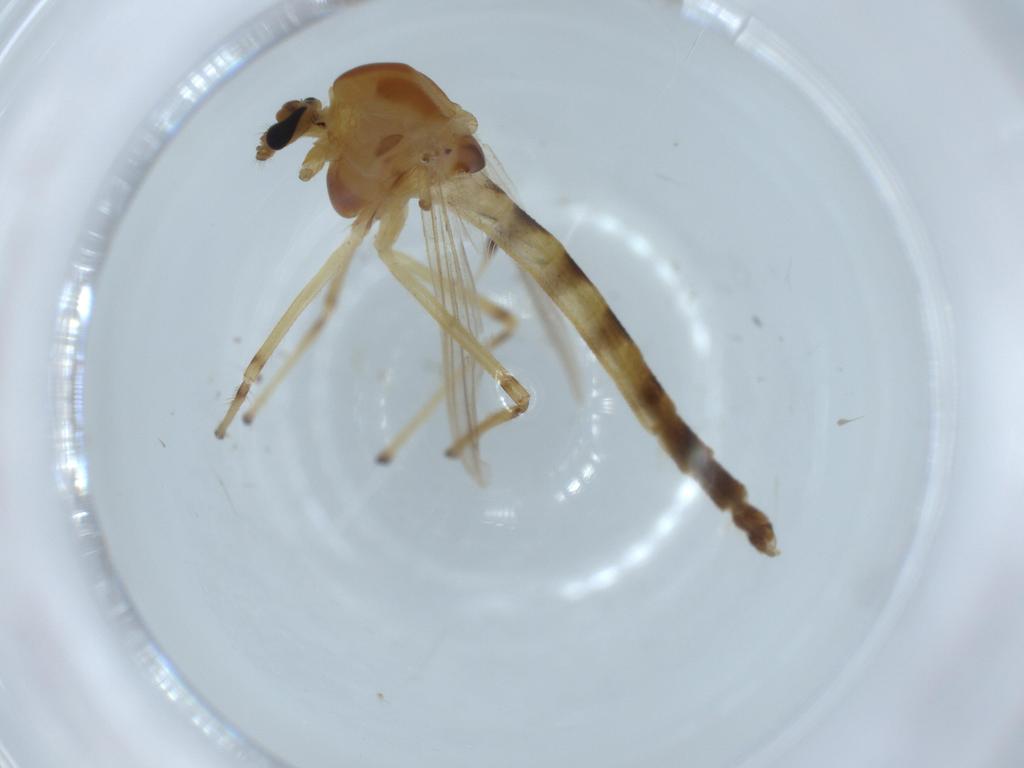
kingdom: Animalia
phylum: Arthropoda
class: Insecta
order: Diptera
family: Chironomidae
